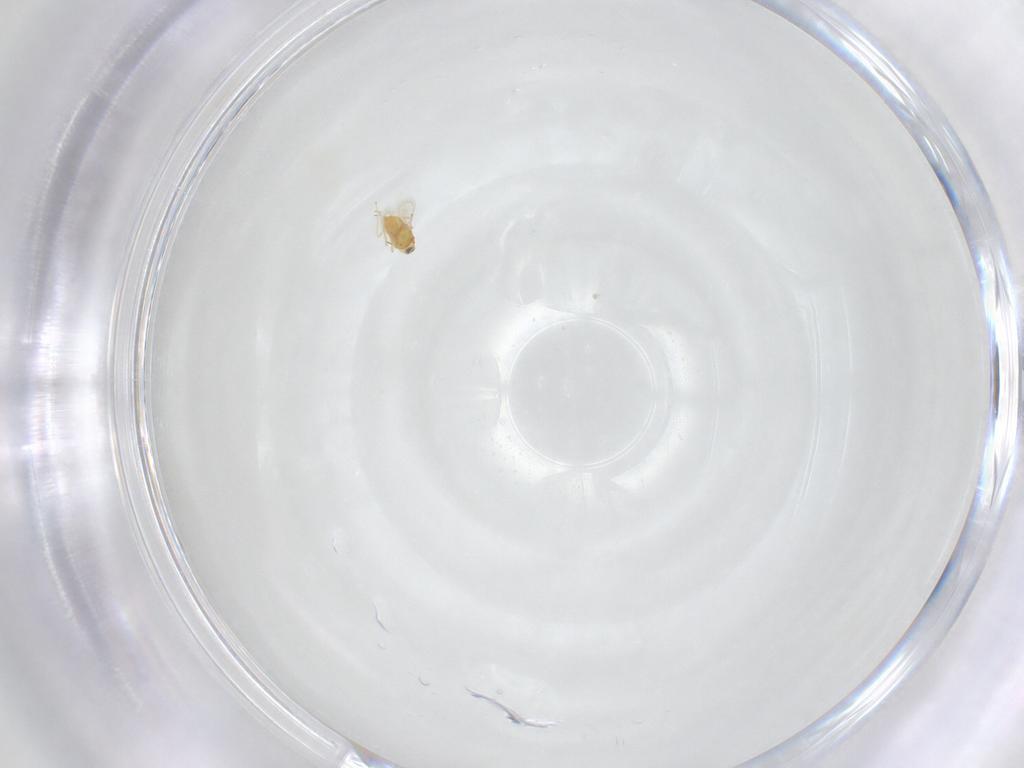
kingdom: Animalia
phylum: Arthropoda
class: Insecta
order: Hymenoptera
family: Aphelinidae
